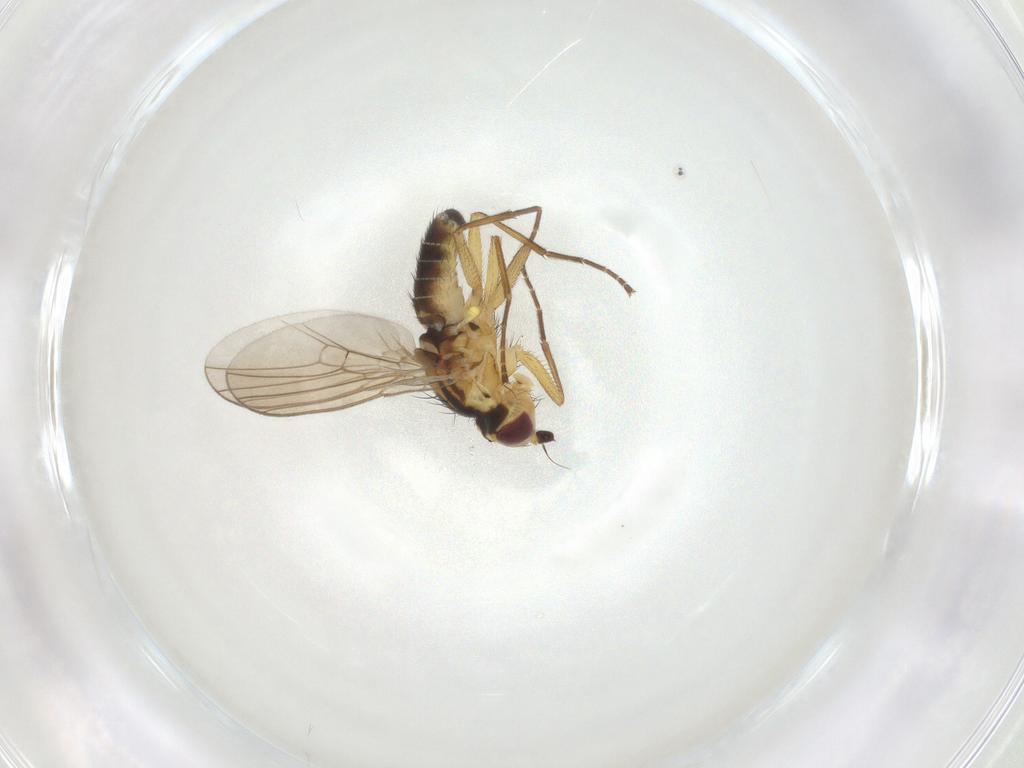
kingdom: Animalia
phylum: Arthropoda
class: Insecta
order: Diptera
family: Agromyzidae
